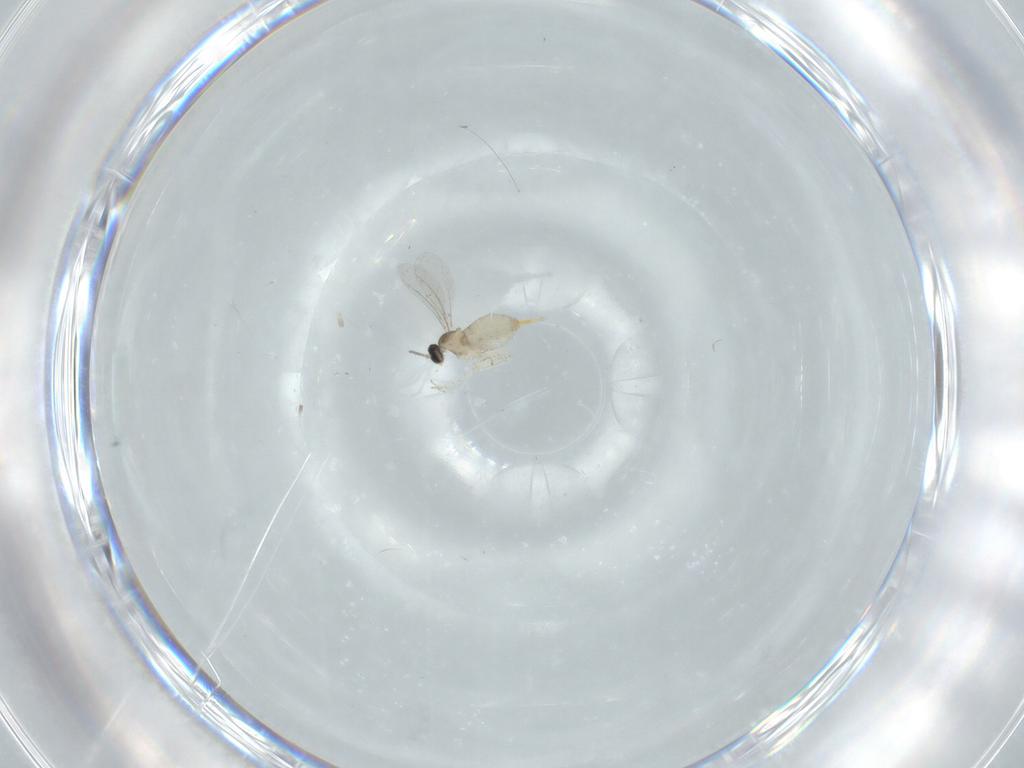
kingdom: Animalia
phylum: Arthropoda
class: Insecta
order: Diptera
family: Cecidomyiidae
